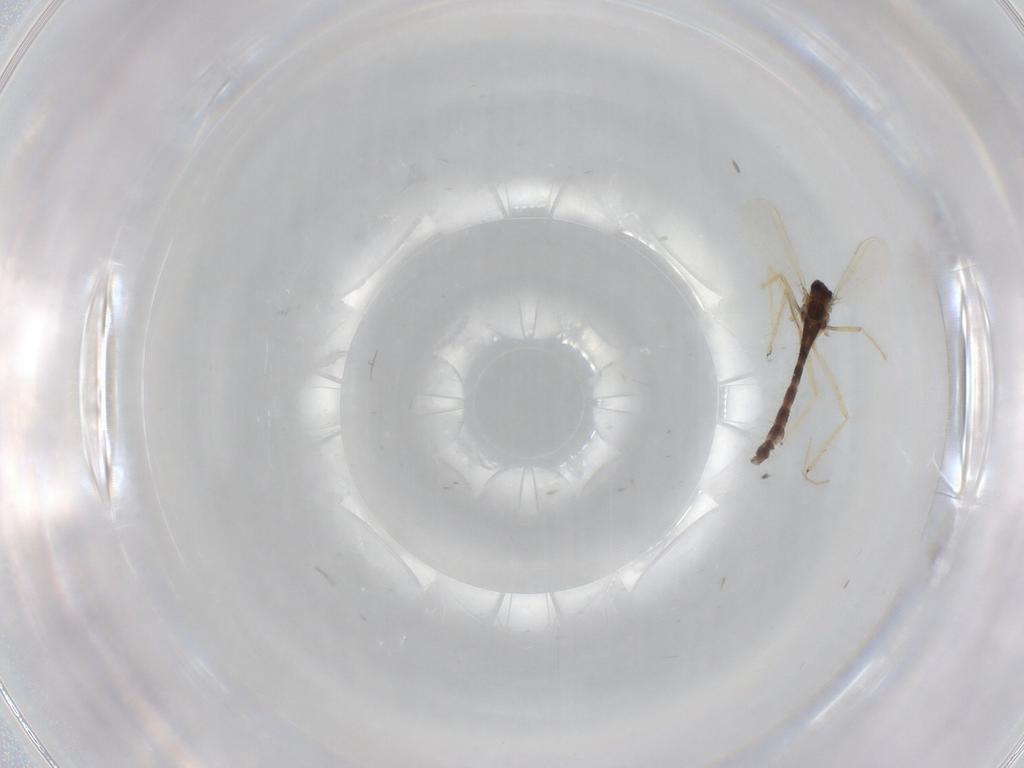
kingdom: Animalia
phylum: Arthropoda
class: Insecta
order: Diptera
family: Chironomidae
